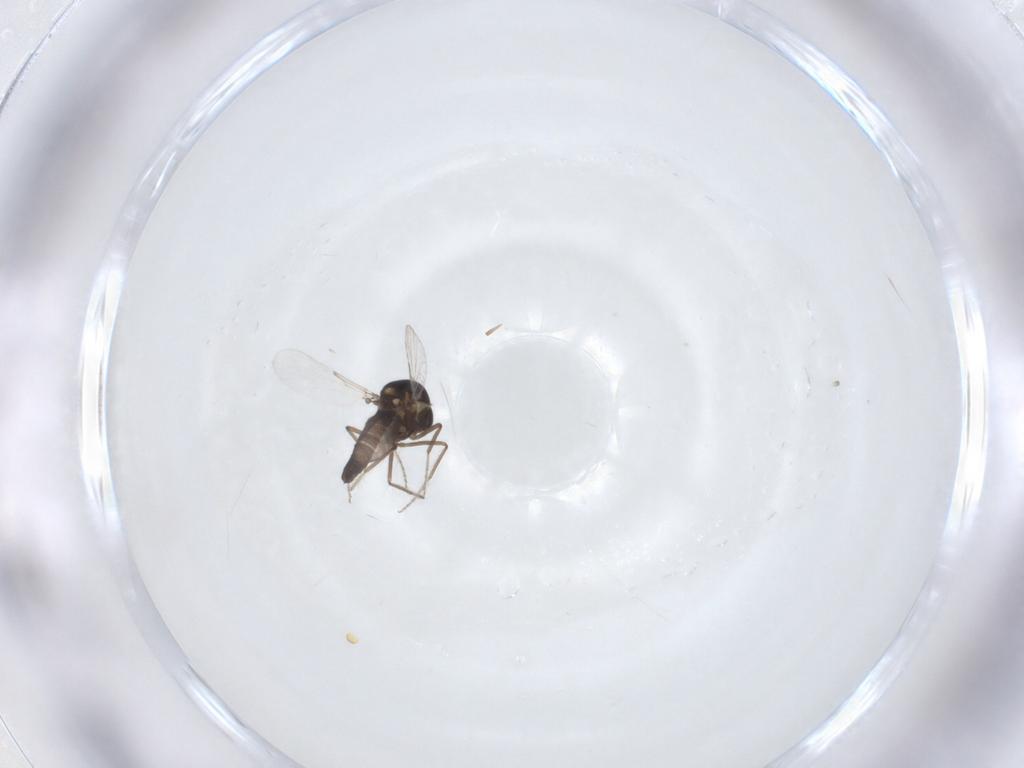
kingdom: Animalia
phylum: Arthropoda
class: Insecta
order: Diptera
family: Ceratopogonidae
